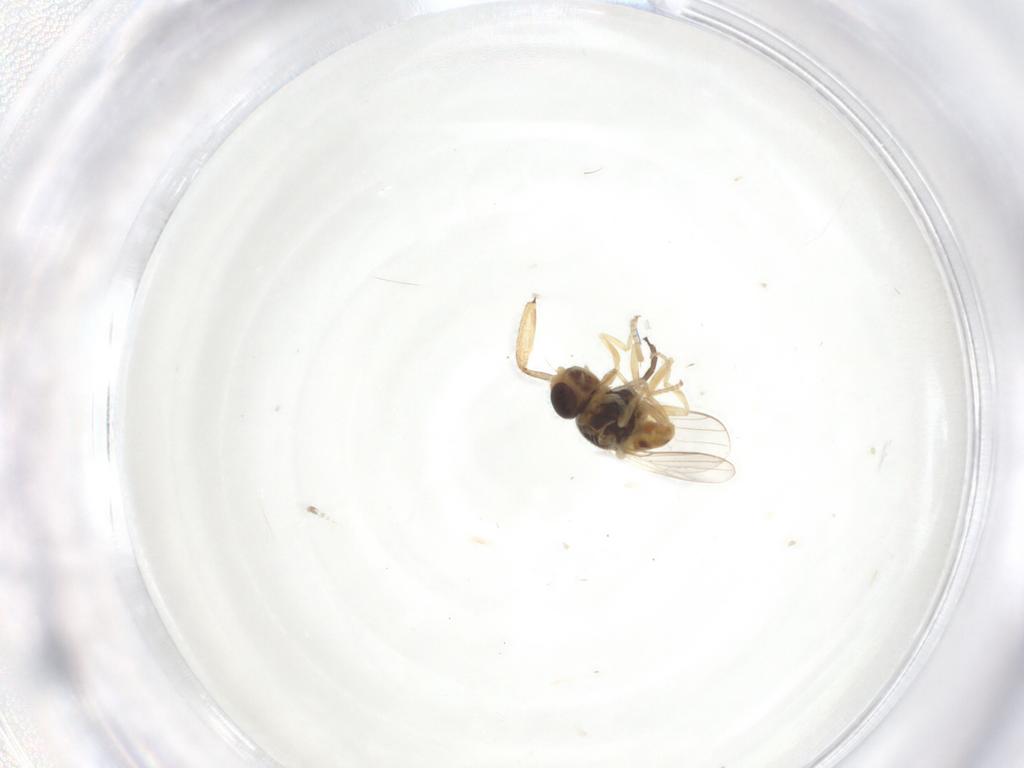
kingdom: Animalia
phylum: Arthropoda
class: Insecta
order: Diptera
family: Chloropidae
